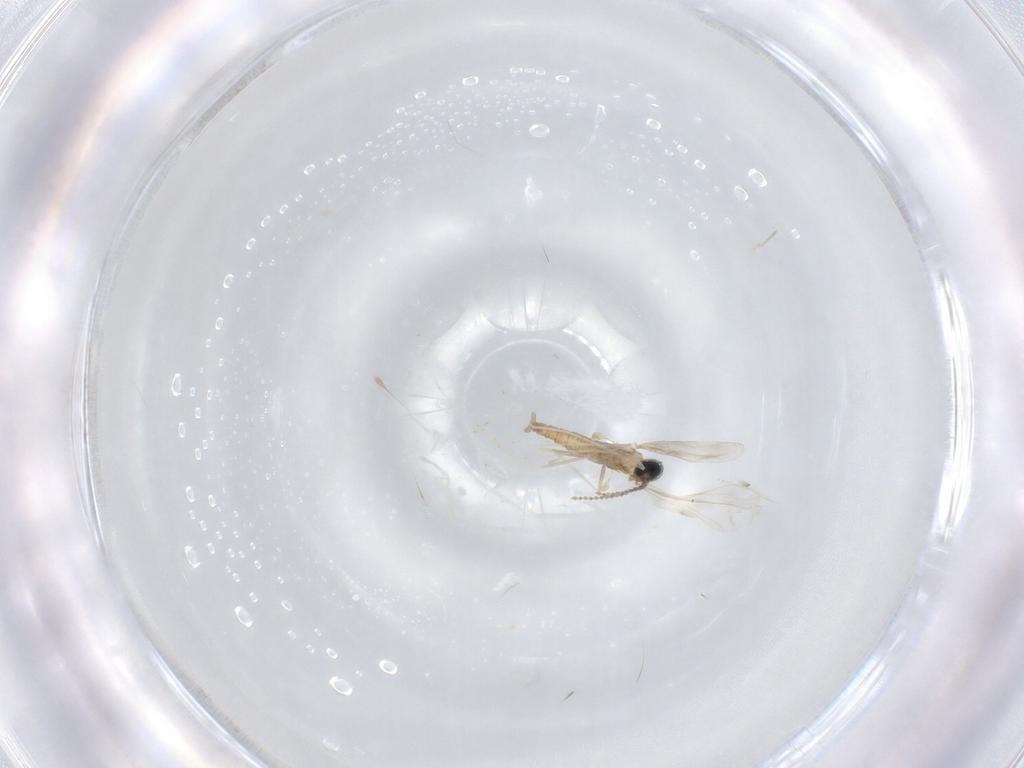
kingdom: Animalia
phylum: Arthropoda
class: Insecta
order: Diptera
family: Cecidomyiidae
